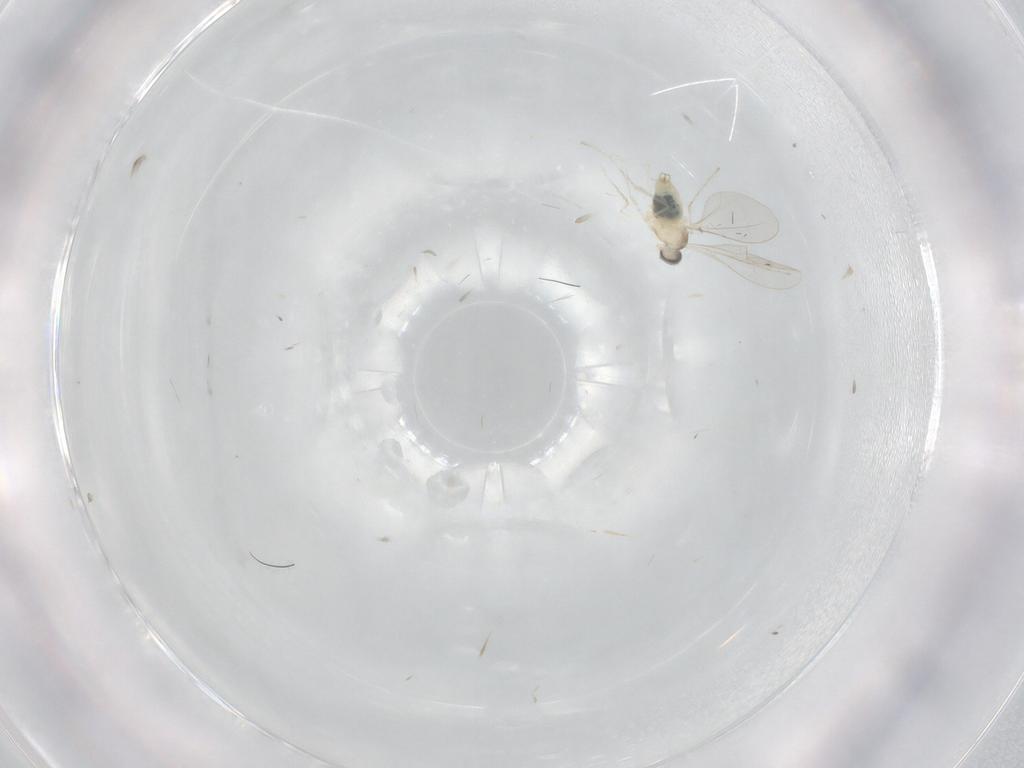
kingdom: Animalia
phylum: Arthropoda
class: Insecta
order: Diptera
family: Cecidomyiidae
